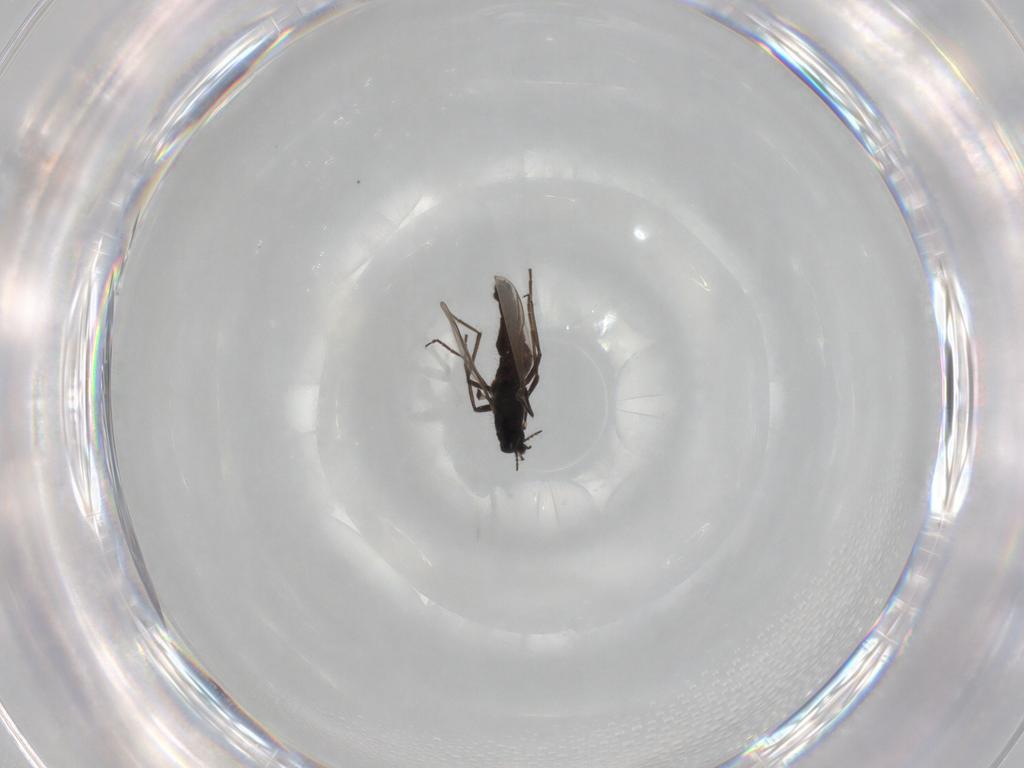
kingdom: Animalia
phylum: Arthropoda
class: Insecta
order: Diptera
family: Chironomidae
